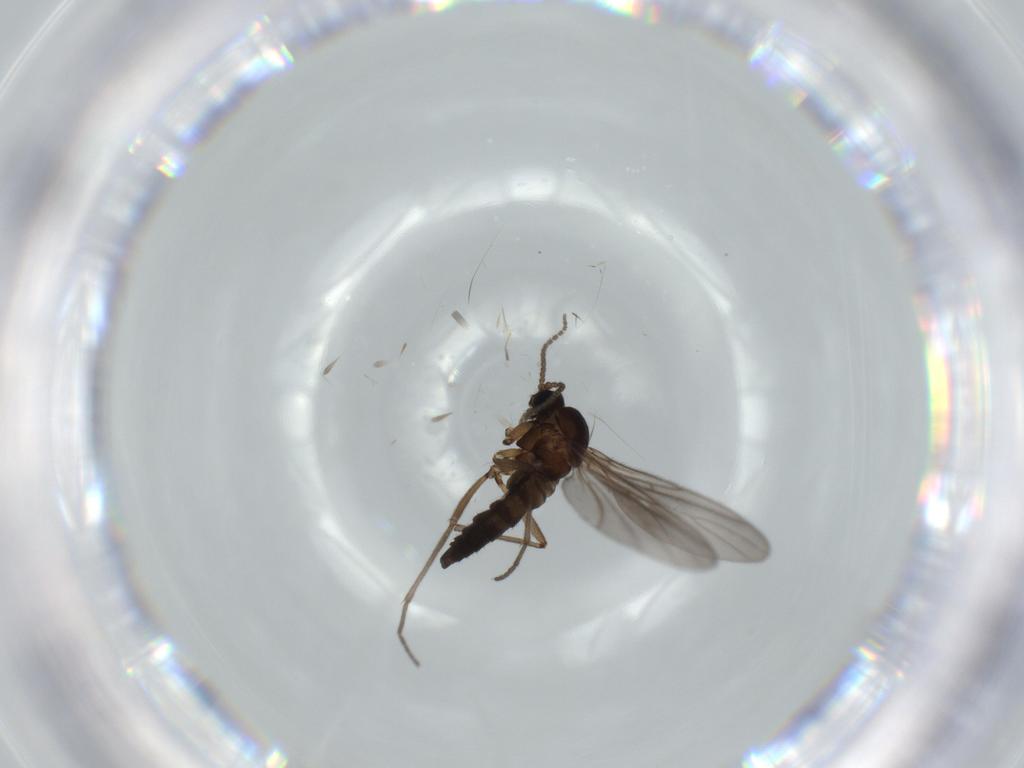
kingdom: Animalia
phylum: Arthropoda
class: Insecta
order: Diptera
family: Sciaridae
